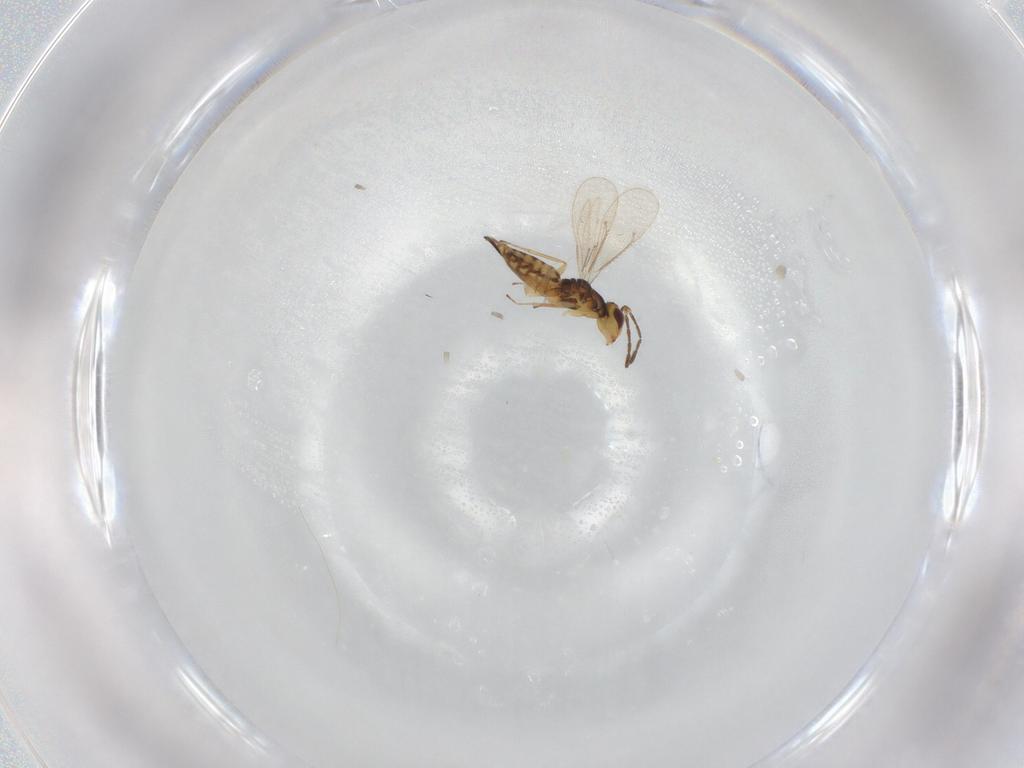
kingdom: Animalia
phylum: Arthropoda
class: Insecta
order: Hymenoptera
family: Eulophidae
